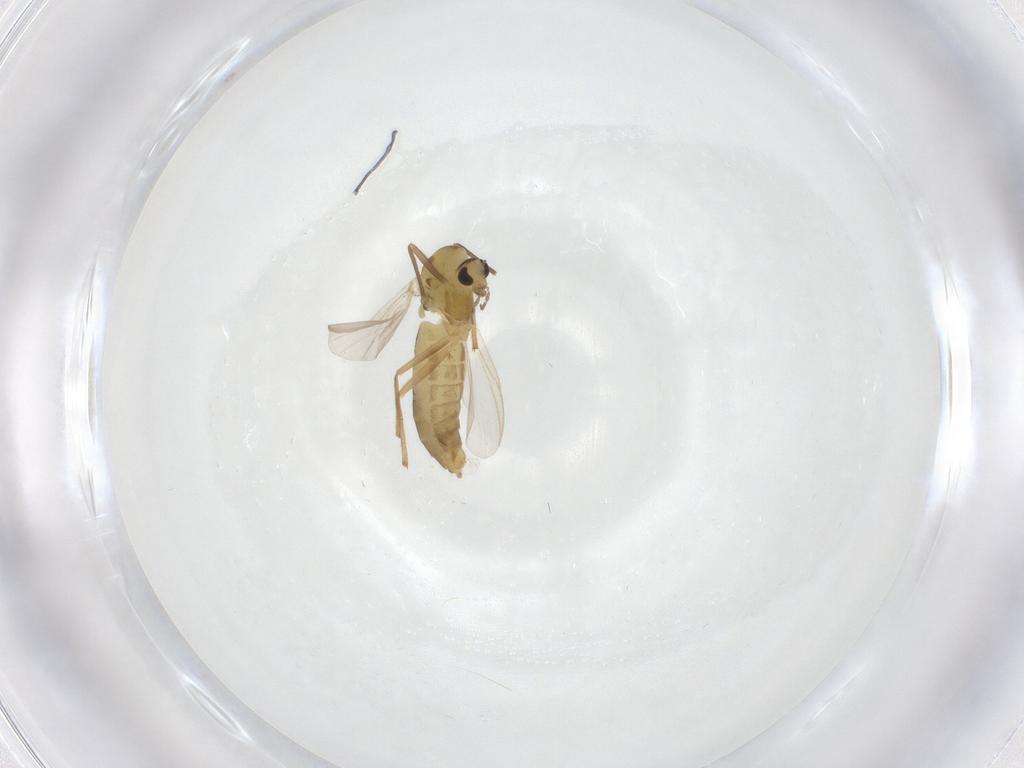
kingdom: Animalia
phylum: Arthropoda
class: Insecta
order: Diptera
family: Chironomidae
